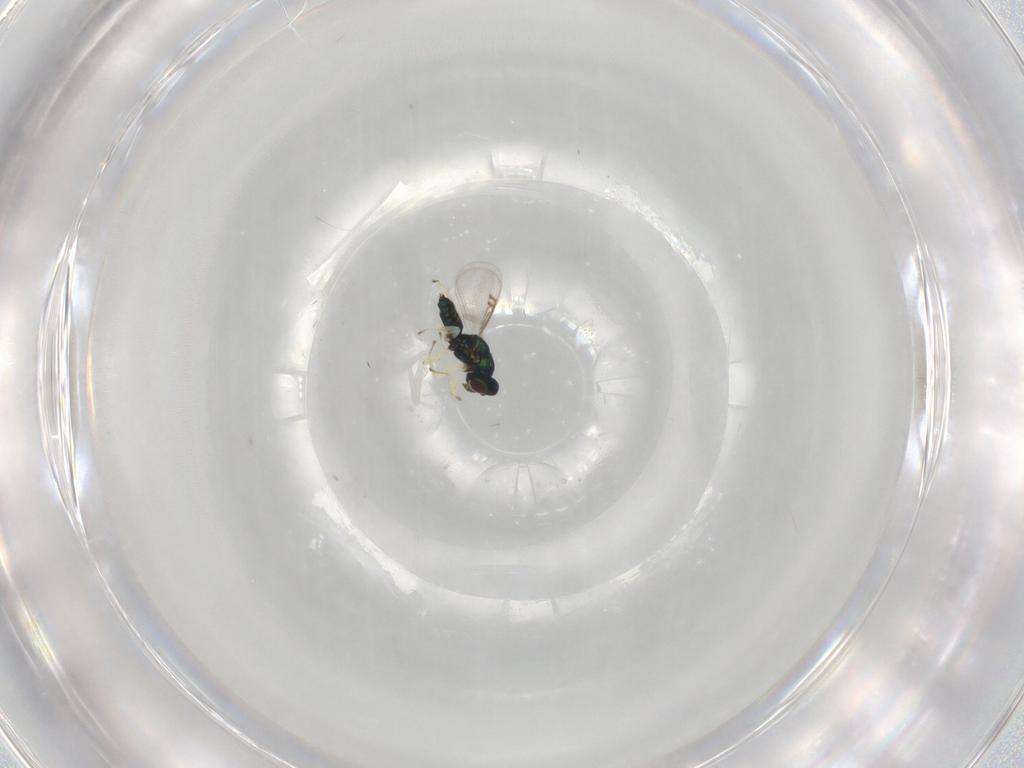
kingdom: Animalia
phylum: Arthropoda
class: Insecta
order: Hymenoptera
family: Eulophidae
